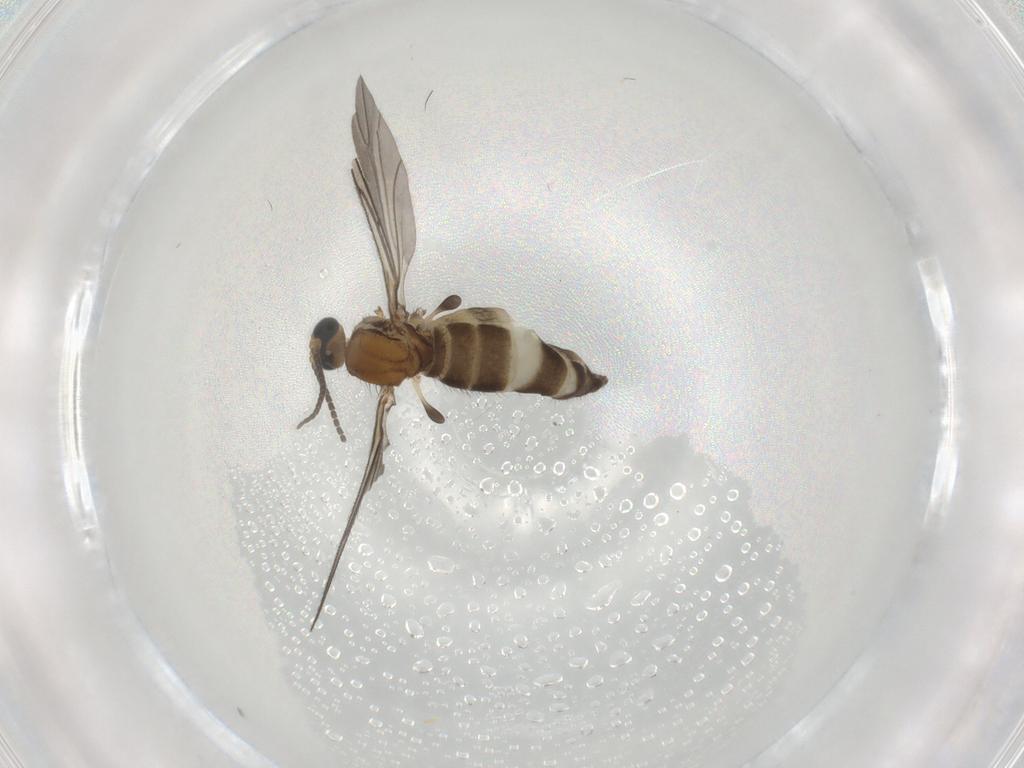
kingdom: Animalia
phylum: Arthropoda
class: Insecta
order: Diptera
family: Sciaridae
